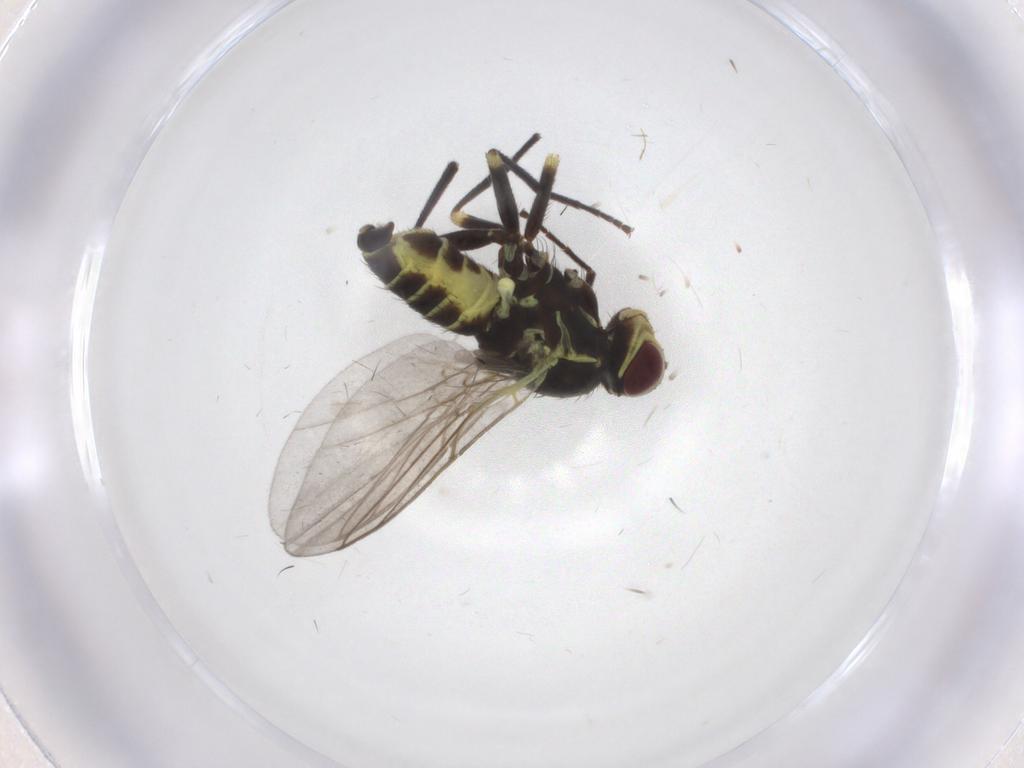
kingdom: Animalia
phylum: Arthropoda
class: Insecta
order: Diptera
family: Agromyzidae
